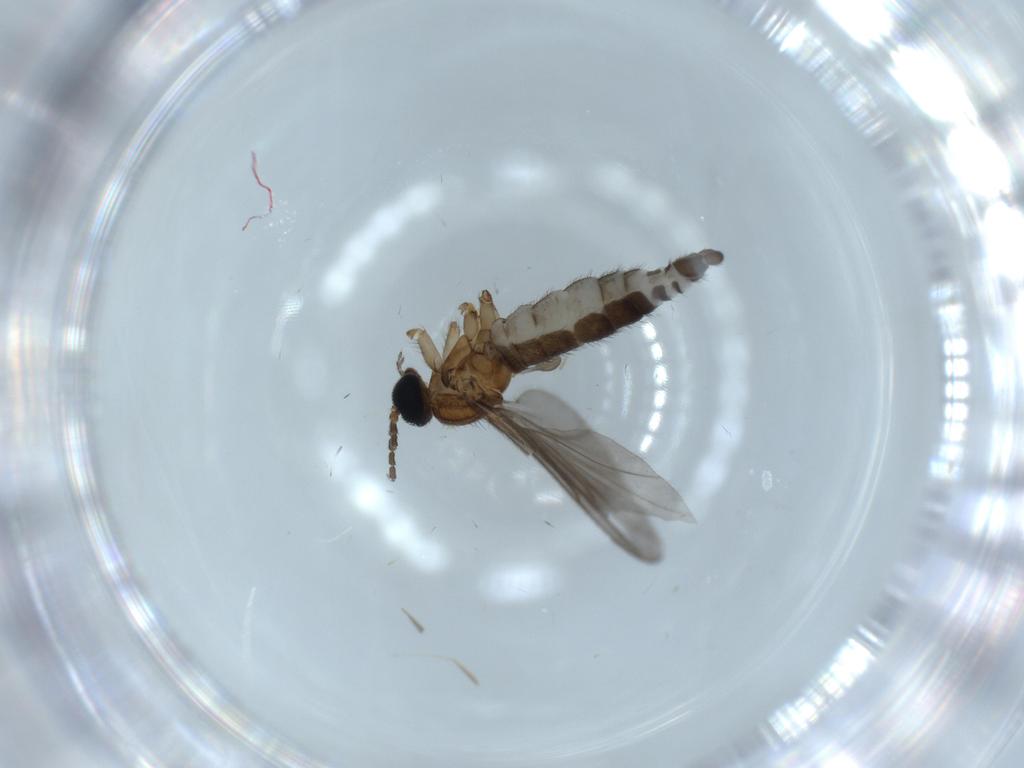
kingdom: Animalia
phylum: Arthropoda
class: Insecta
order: Diptera
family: Sciaridae
